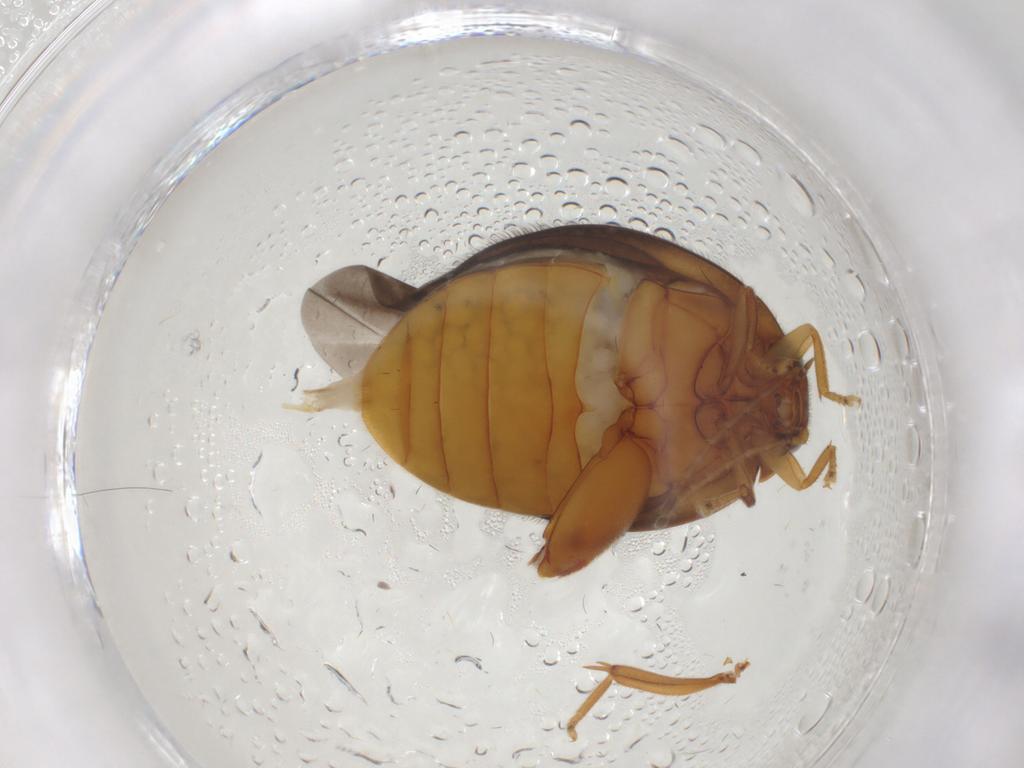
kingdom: Animalia
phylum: Arthropoda
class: Insecta
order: Coleoptera
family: Scirtidae
